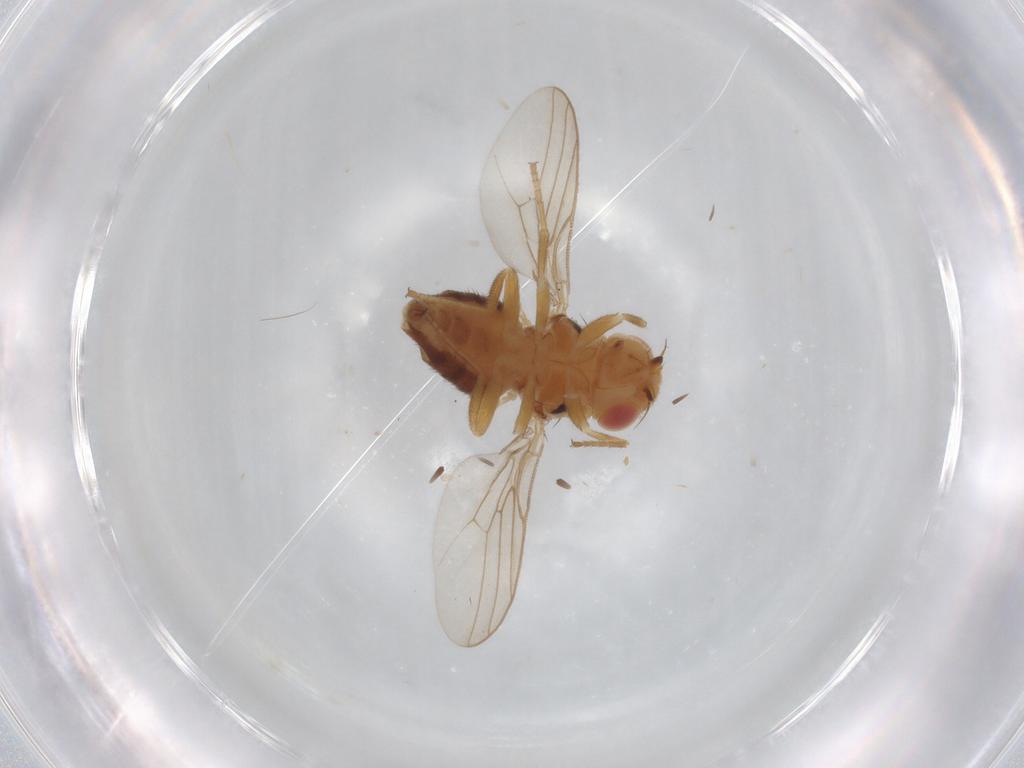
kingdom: Animalia
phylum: Arthropoda
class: Insecta
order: Diptera
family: Chloropidae
